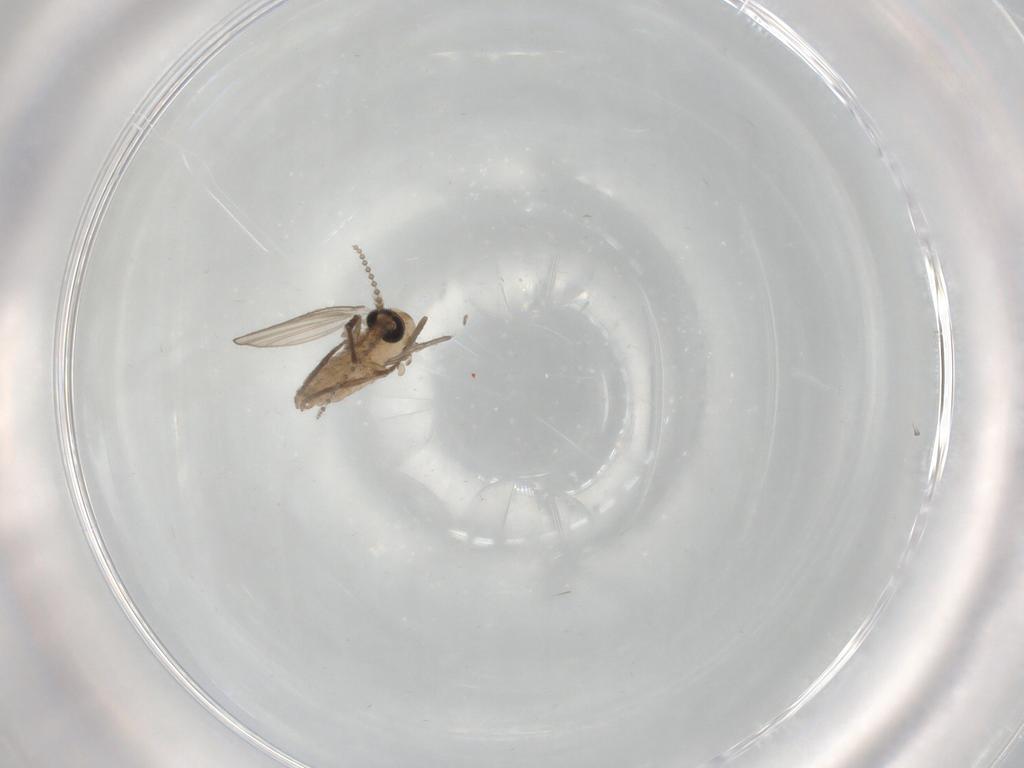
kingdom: Animalia
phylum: Arthropoda
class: Insecta
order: Diptera
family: Psychodidae
